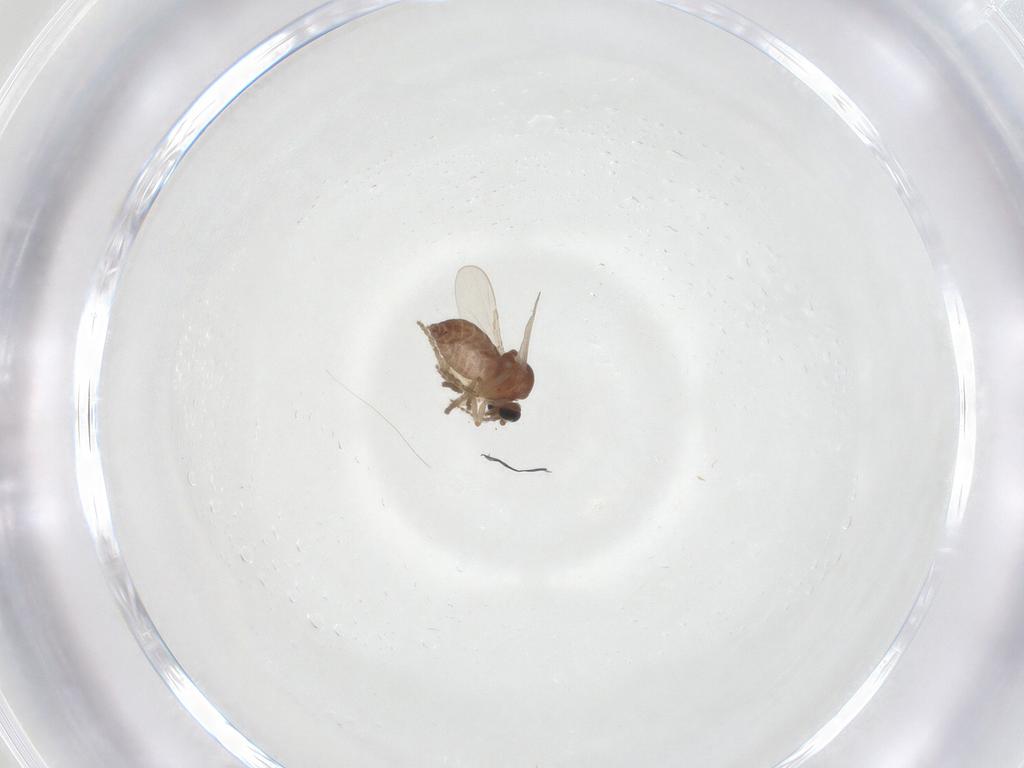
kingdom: Animalia
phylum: Arthropoda
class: Insecta
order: Diptera
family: Ceratopogonidae
